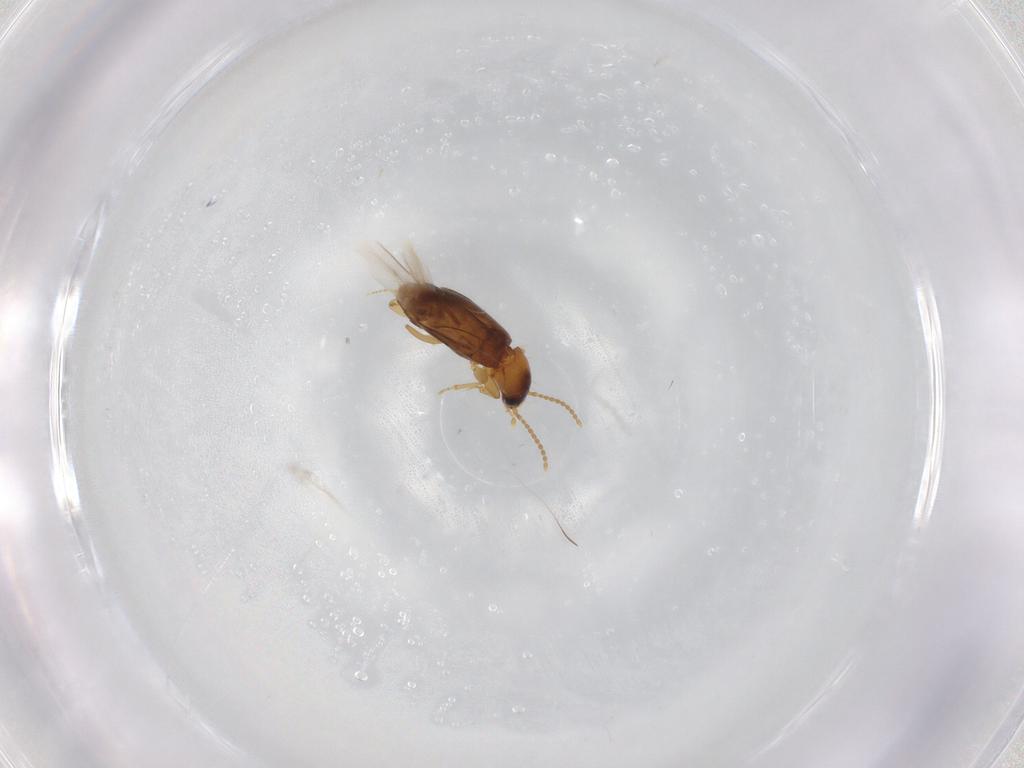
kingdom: Animalia
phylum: Arthropoda
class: Insecta
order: Coleoptera
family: Carabidae
